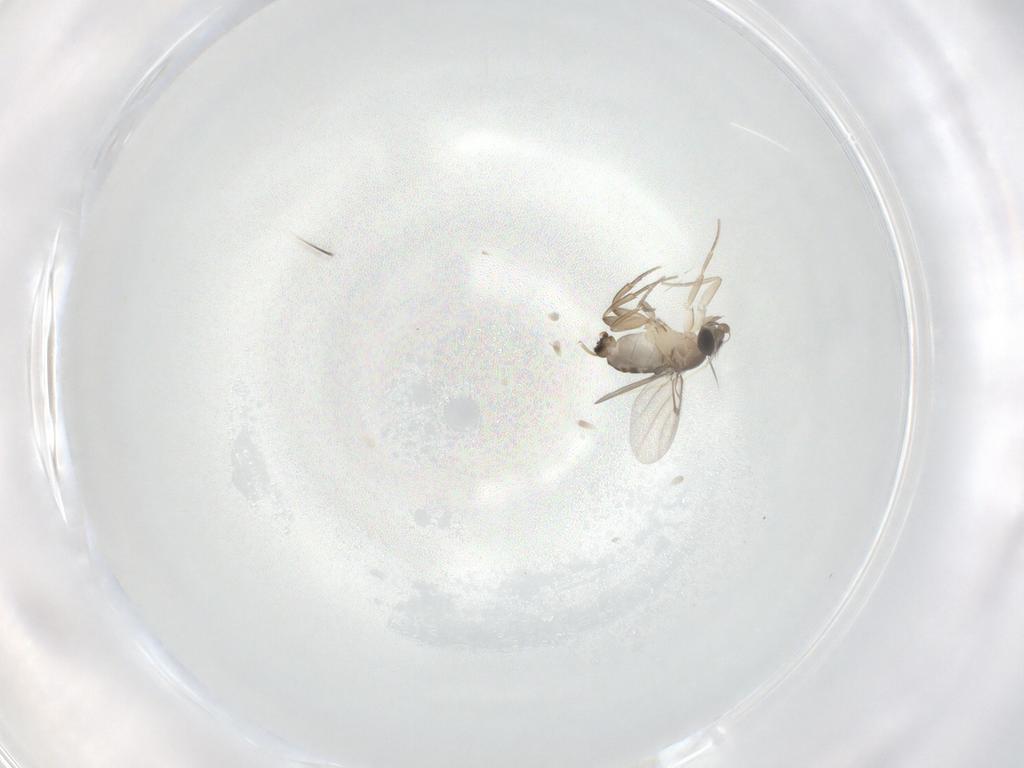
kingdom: Animalia
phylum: Arthropoda
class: Insecta
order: Diptera
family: Phoridae
